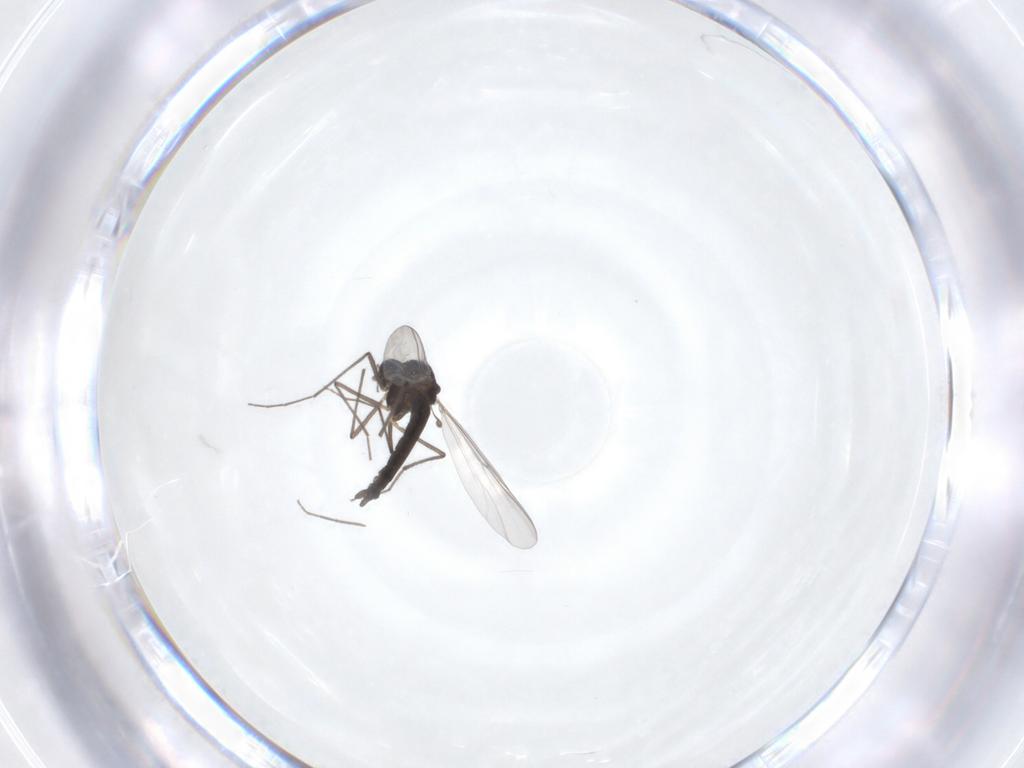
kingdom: Animalia
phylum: Arthropoda
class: Insecta
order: Diptera
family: Chironomidae
